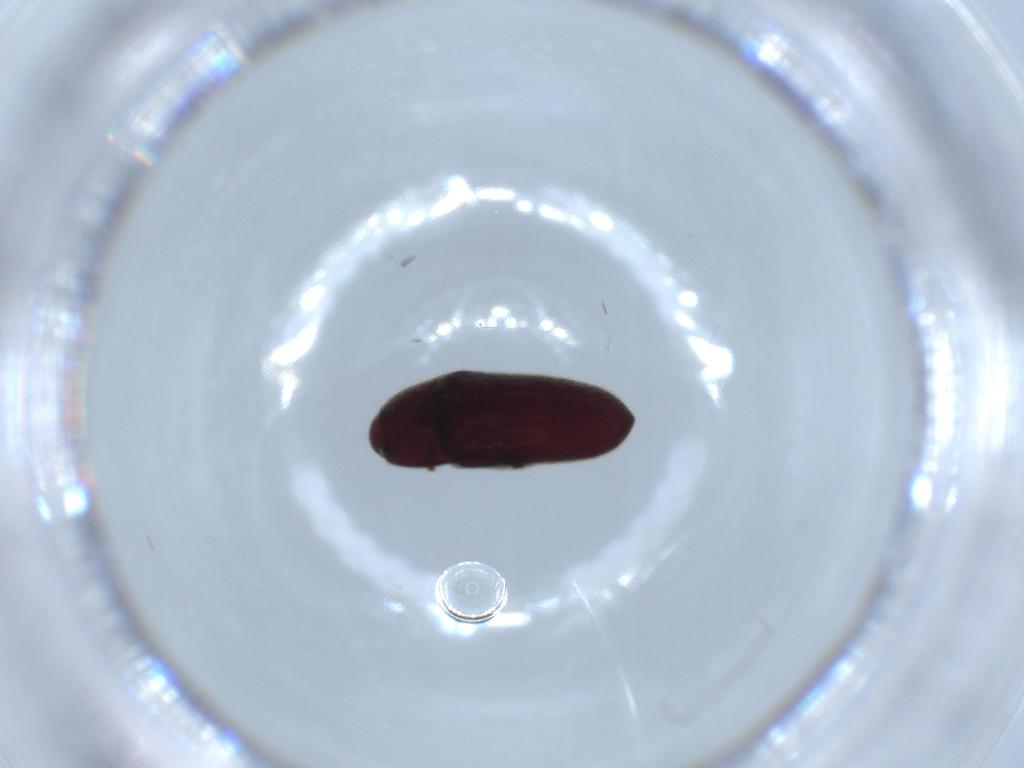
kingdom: Animalia
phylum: Arthropoda
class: Insecta
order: Coleoptera
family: Throscidae
